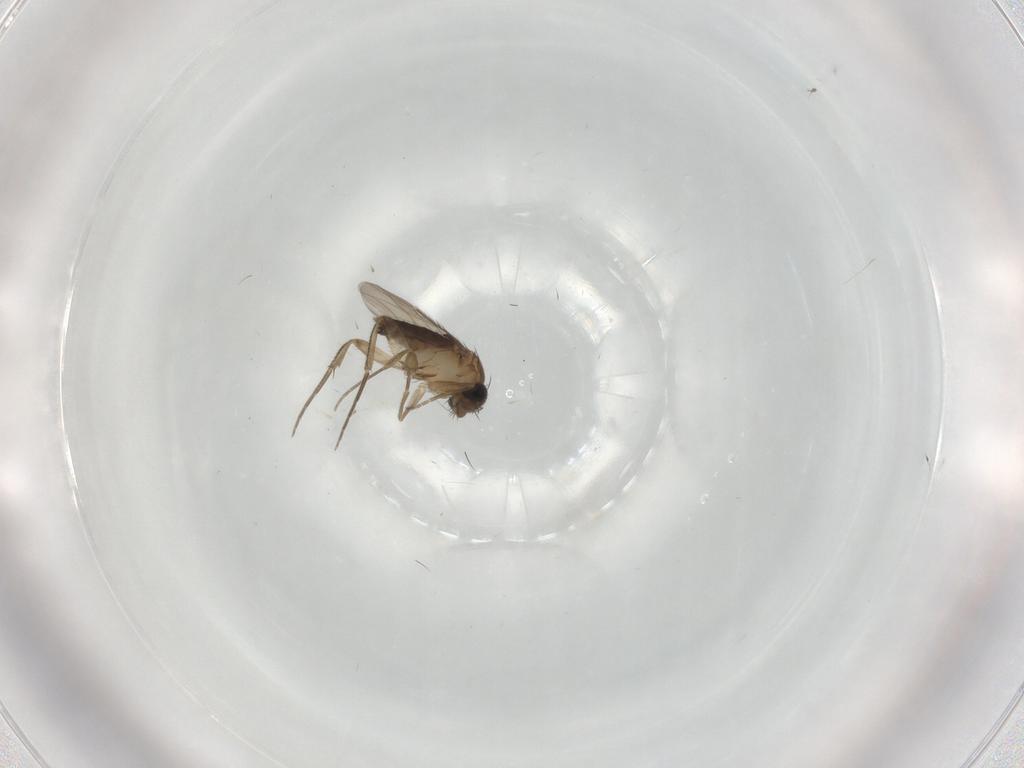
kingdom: Animalia
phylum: Arthropoda
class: Insecta
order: Diptera
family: Phoridae
